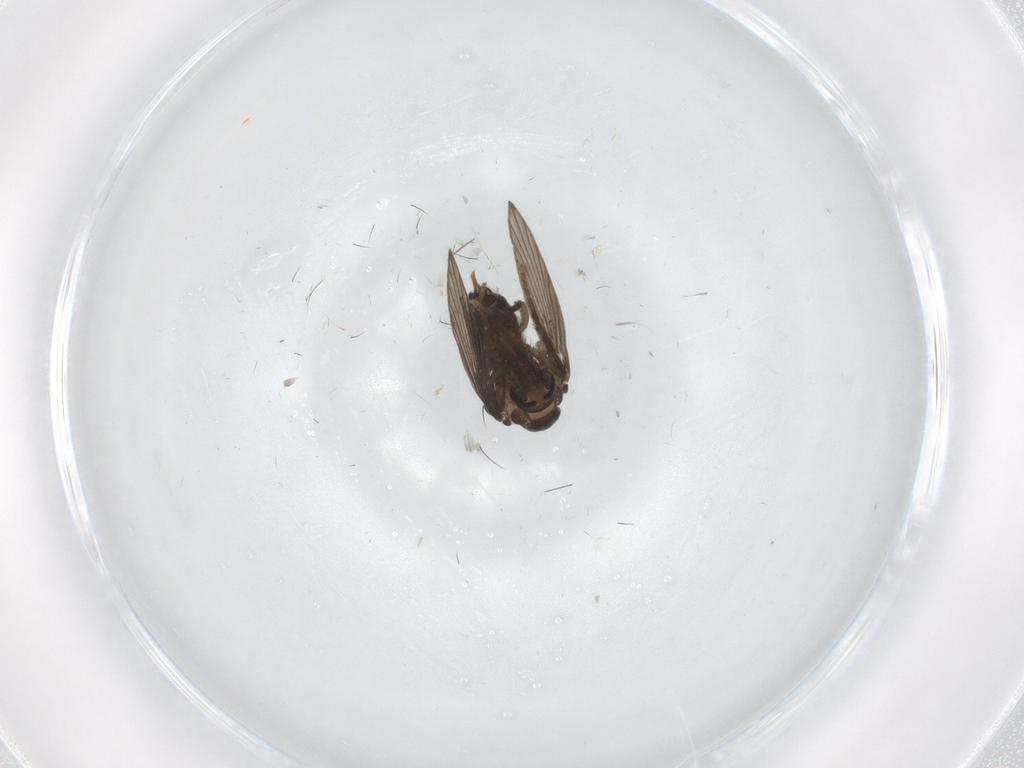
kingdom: Animalia
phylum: Arthropoda
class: Insecta
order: Diptera
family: Psychodidae
